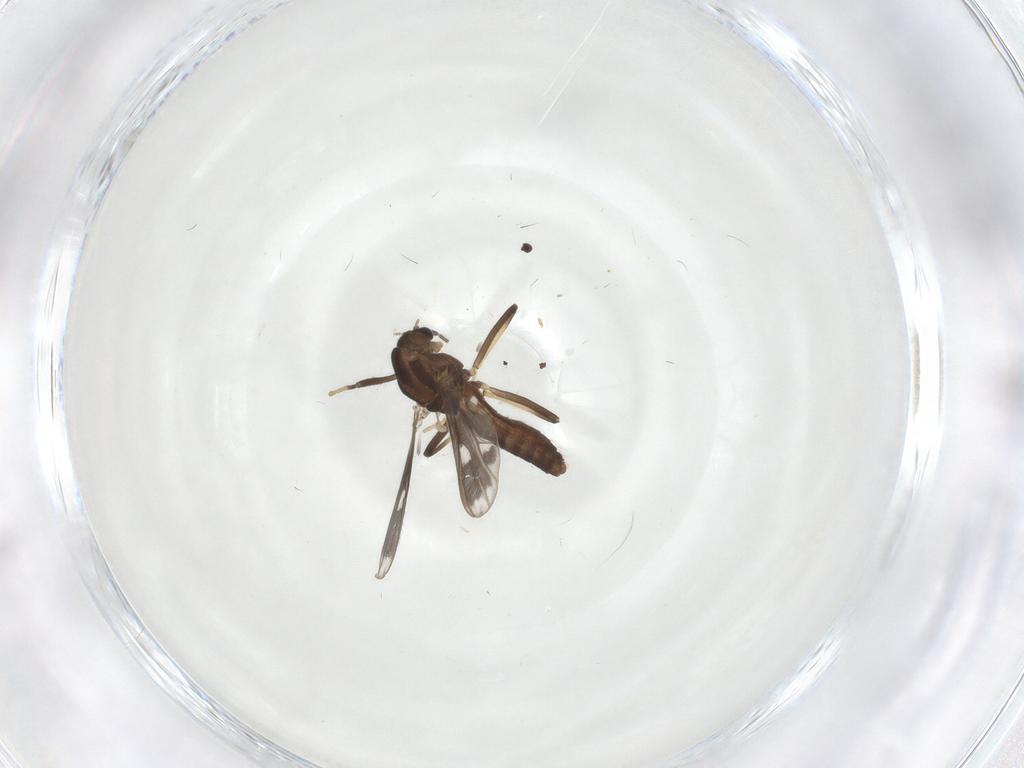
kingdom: Animalia
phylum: Arthropoda
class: Insecta
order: Diptera
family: Chironomidae
